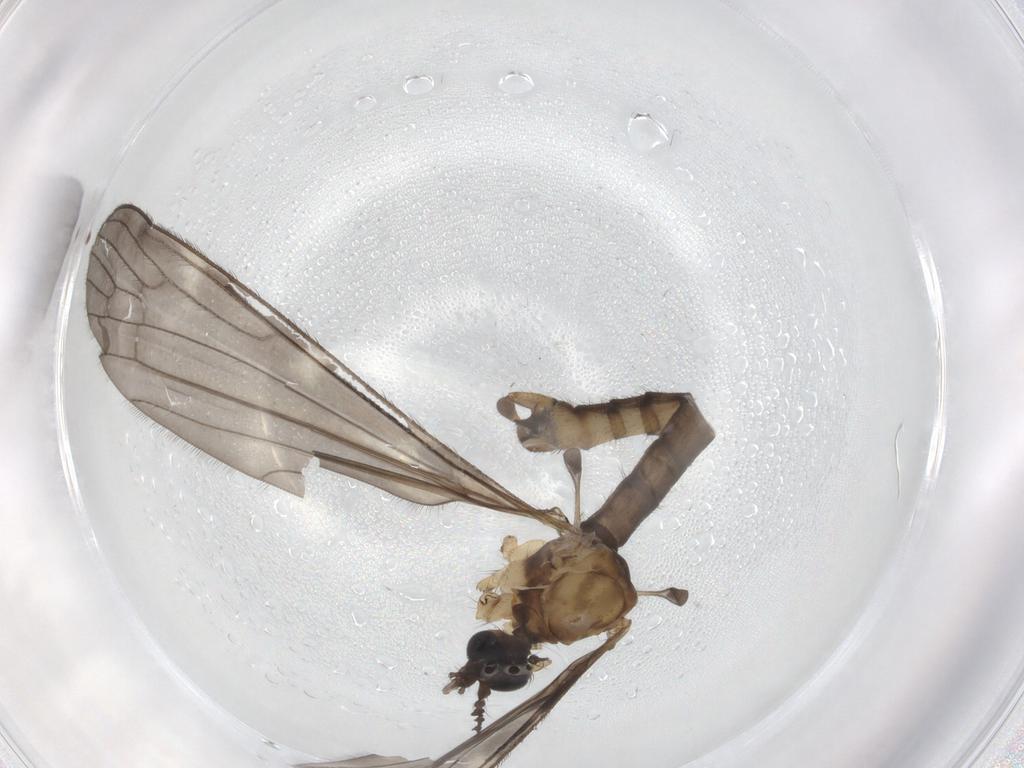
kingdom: Animalia
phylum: Arthropoda
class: Insecta
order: Diptera
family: Limoniidae
